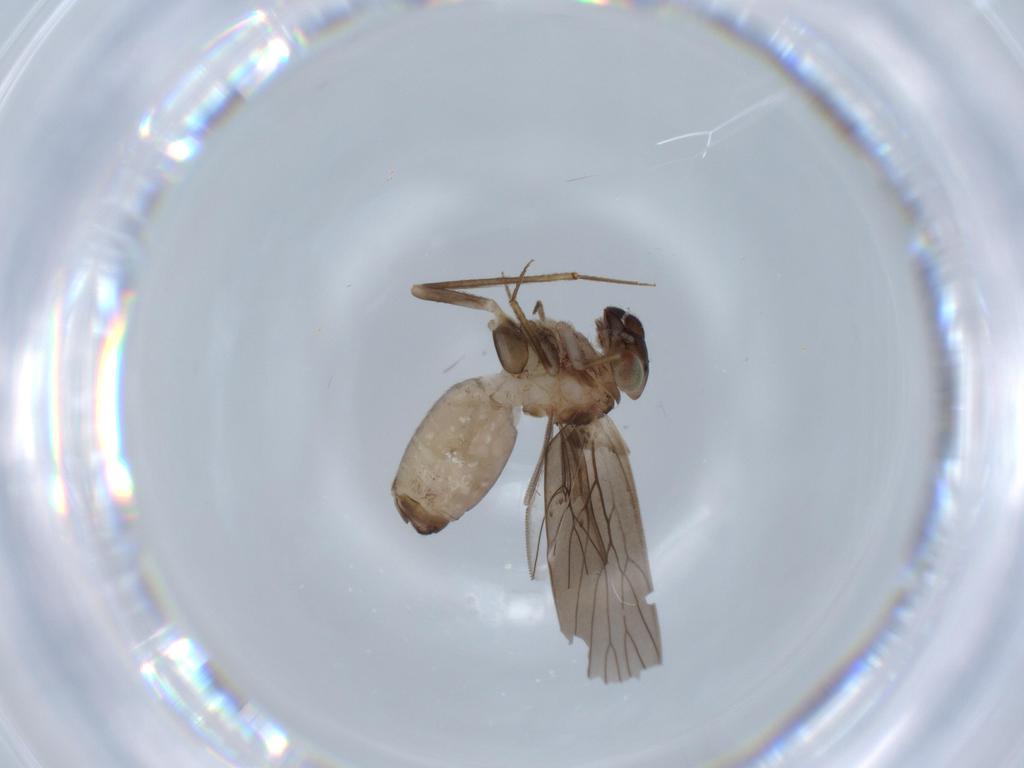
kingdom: Animalia
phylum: Arthropoda
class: Insecta
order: Psocodea
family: Lepidopsocidae
